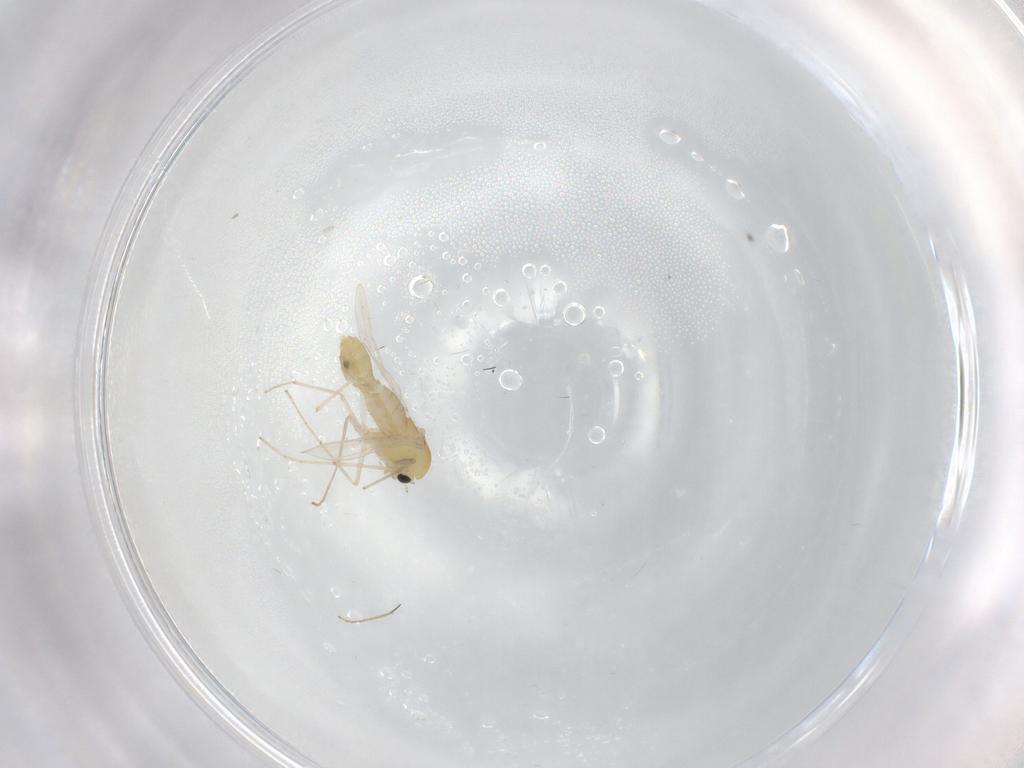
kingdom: Animalia
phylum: Arthropoda
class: Insecta
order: Diptera
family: Chironomidae
